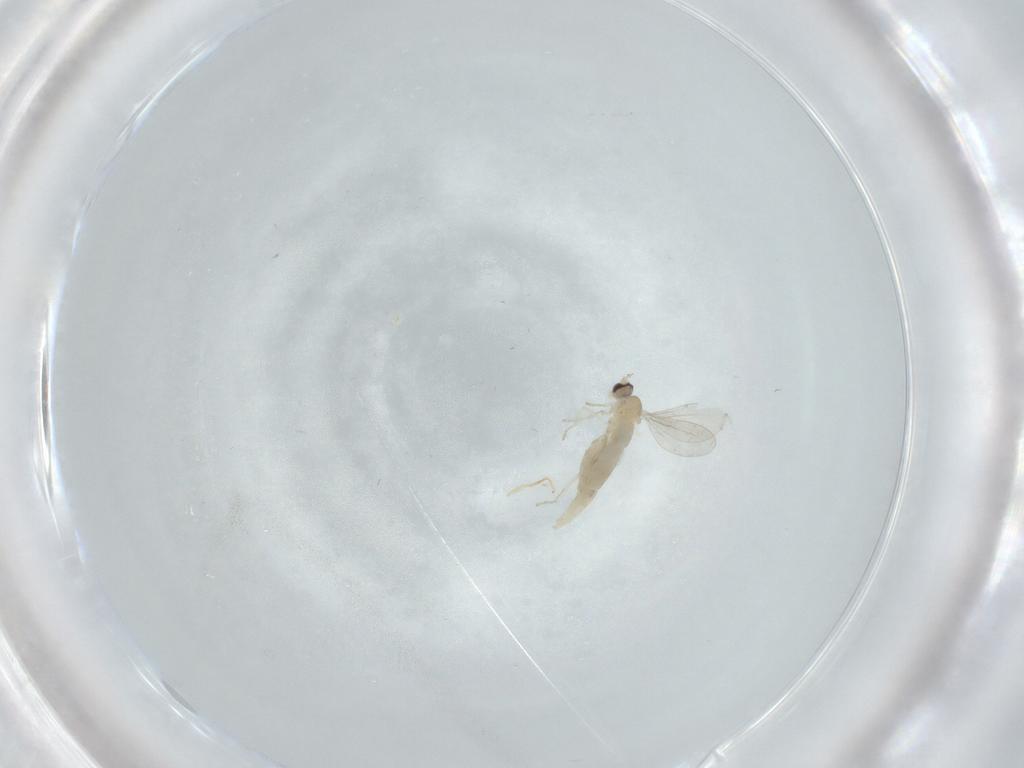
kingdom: Animalia
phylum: Arthropoda
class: Insecta
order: Diptera
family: Cecidomyiidae
